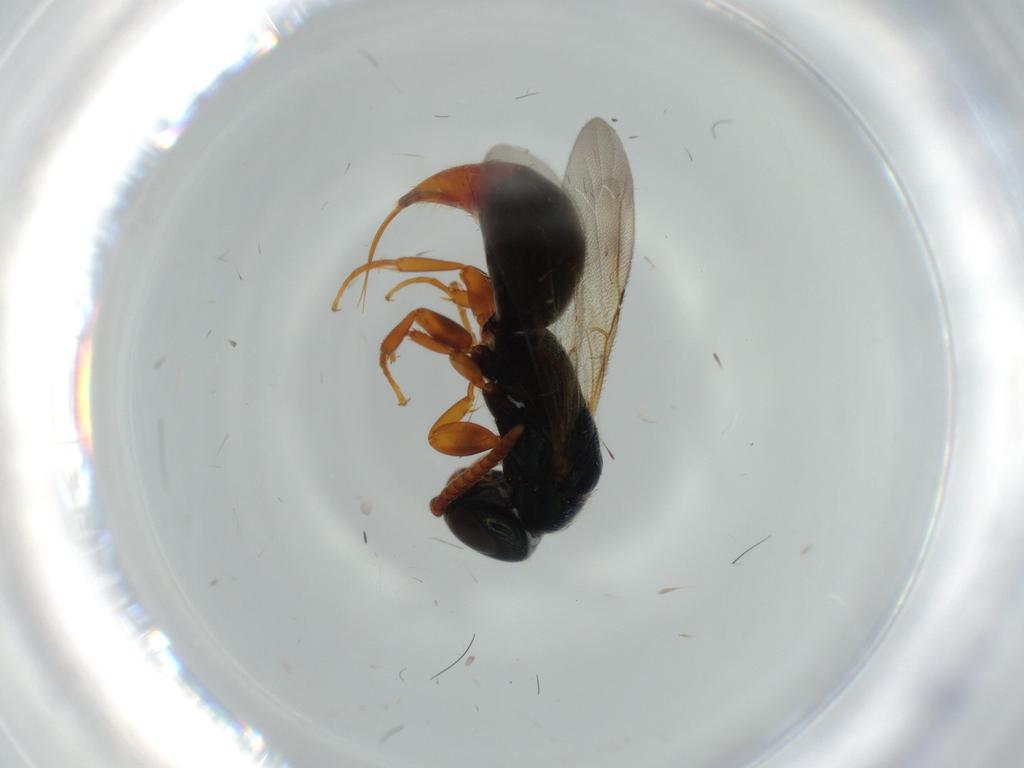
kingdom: Animalia
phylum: Arthropoda
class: Insecta
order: Hymenoptera
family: Bethylidae
